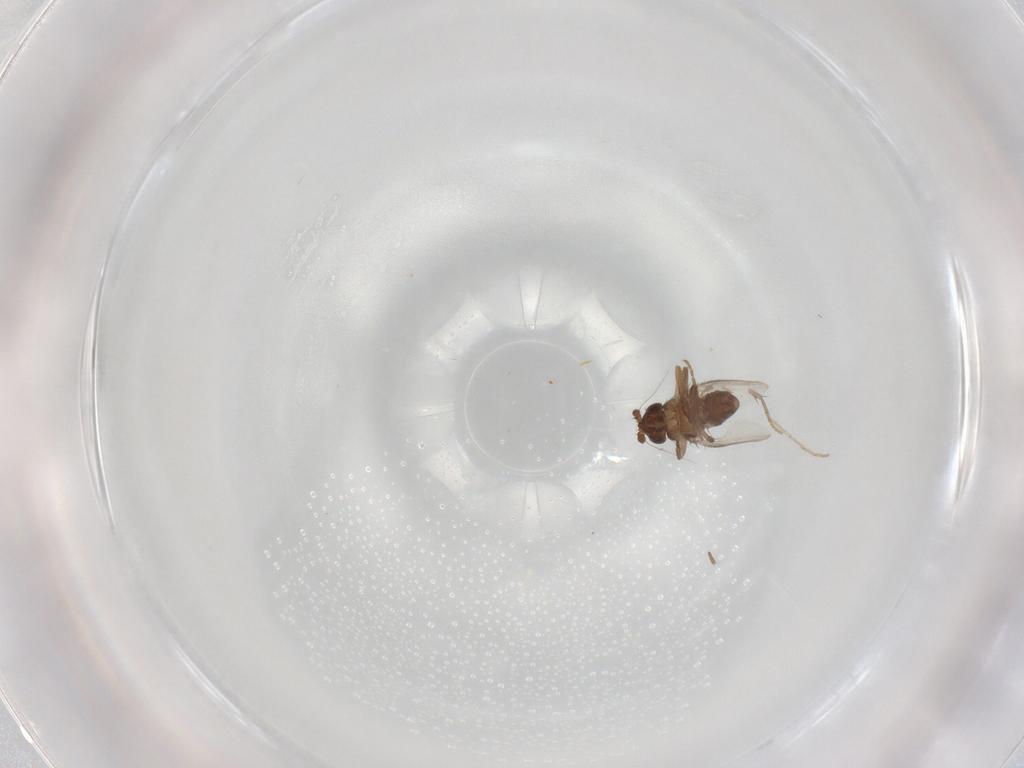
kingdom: Animalia
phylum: Arthropoda
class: Insecta
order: Diptera
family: Sphaeroceridae
